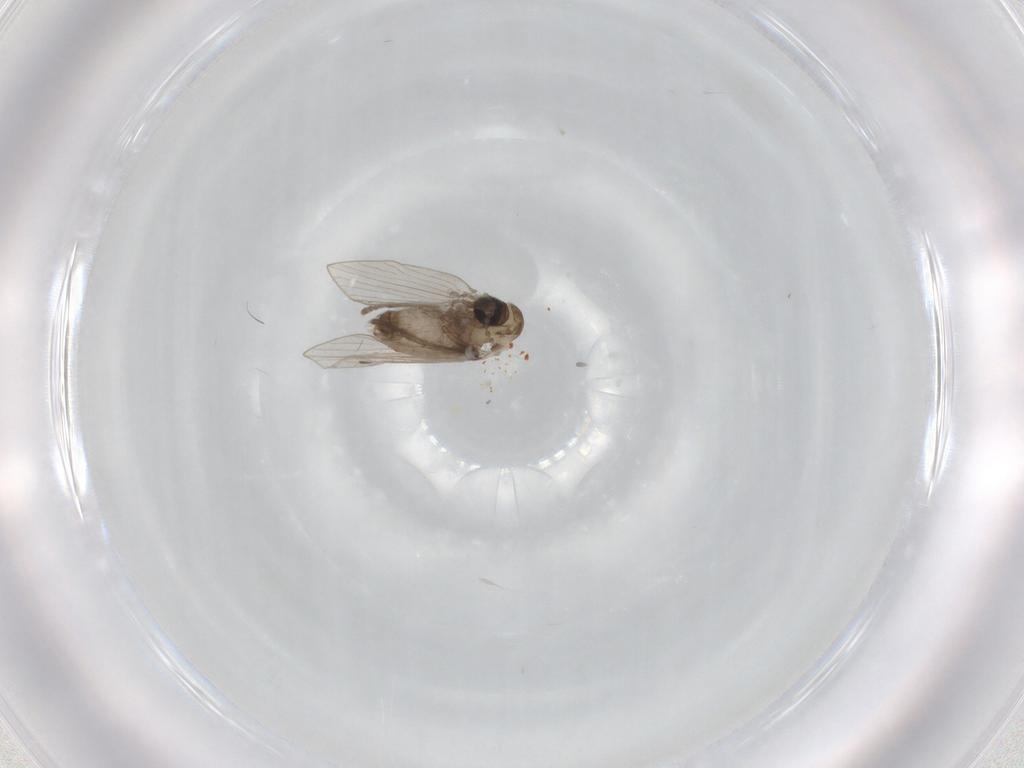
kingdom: Animalia
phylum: Arthropoda
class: Insecta
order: Diptera
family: Psychodidae
